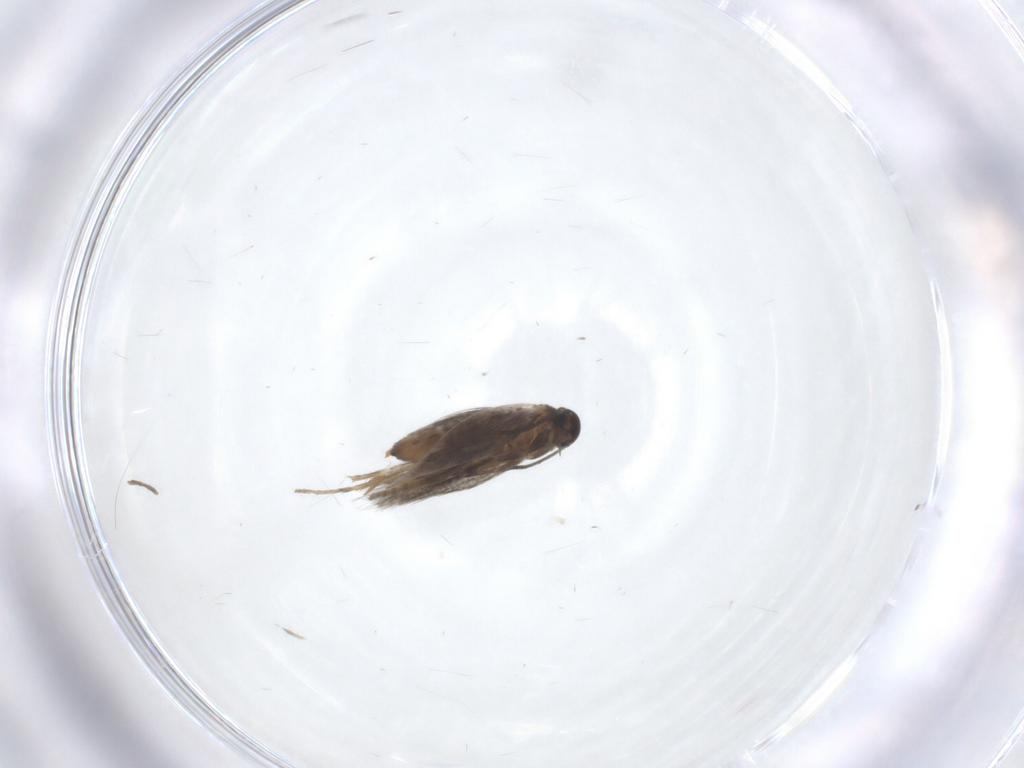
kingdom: Animalia
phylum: Arthropoda
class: Insecta
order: Lepidoptera
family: Heliozelidae
